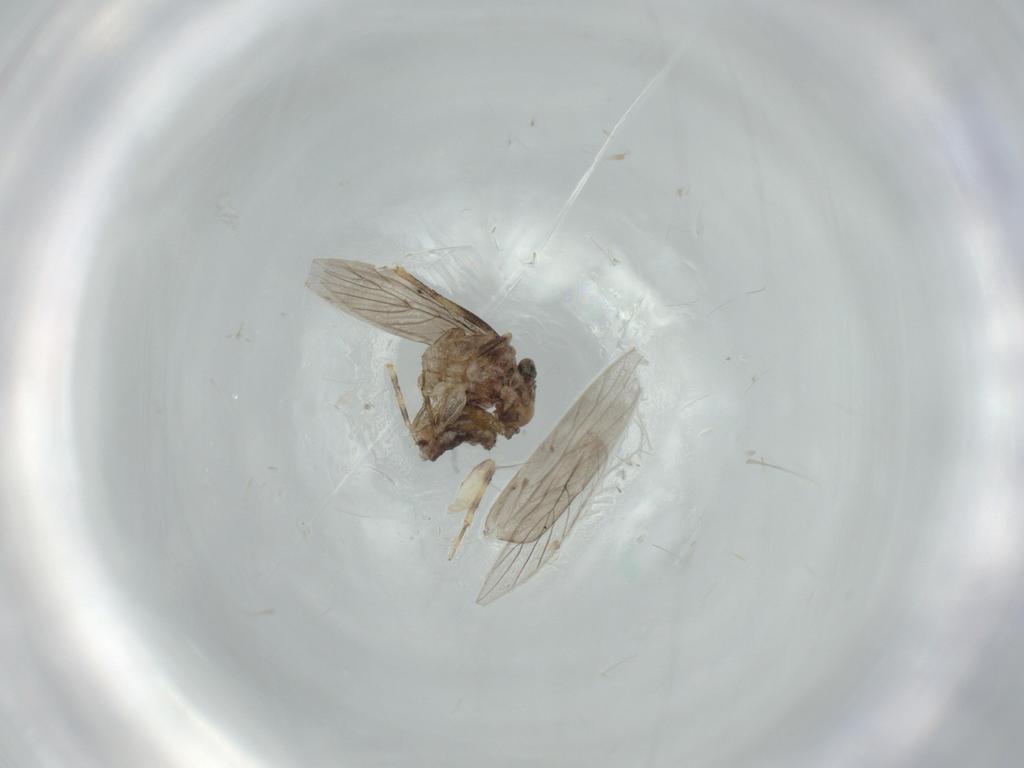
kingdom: Animalia
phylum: Arthropoda
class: Insecta
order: Psocodea
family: Lepidopsocidae
